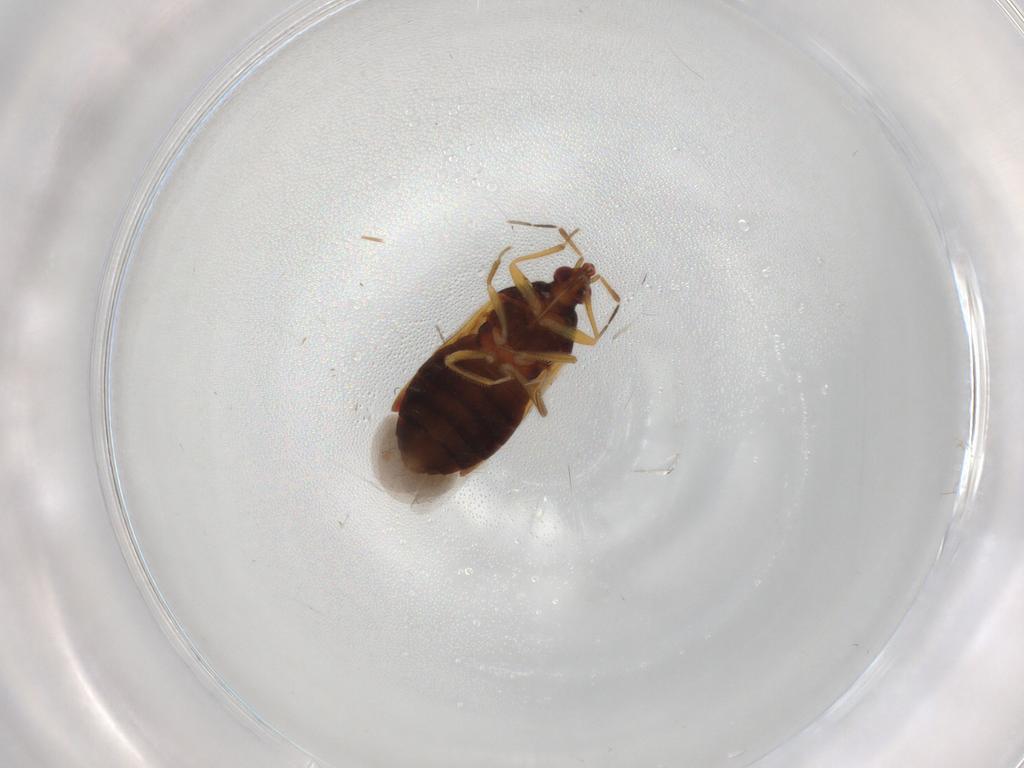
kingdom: Animalia
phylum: Arthropoda
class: Insecta
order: Hemiptera
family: Anthocoridae
